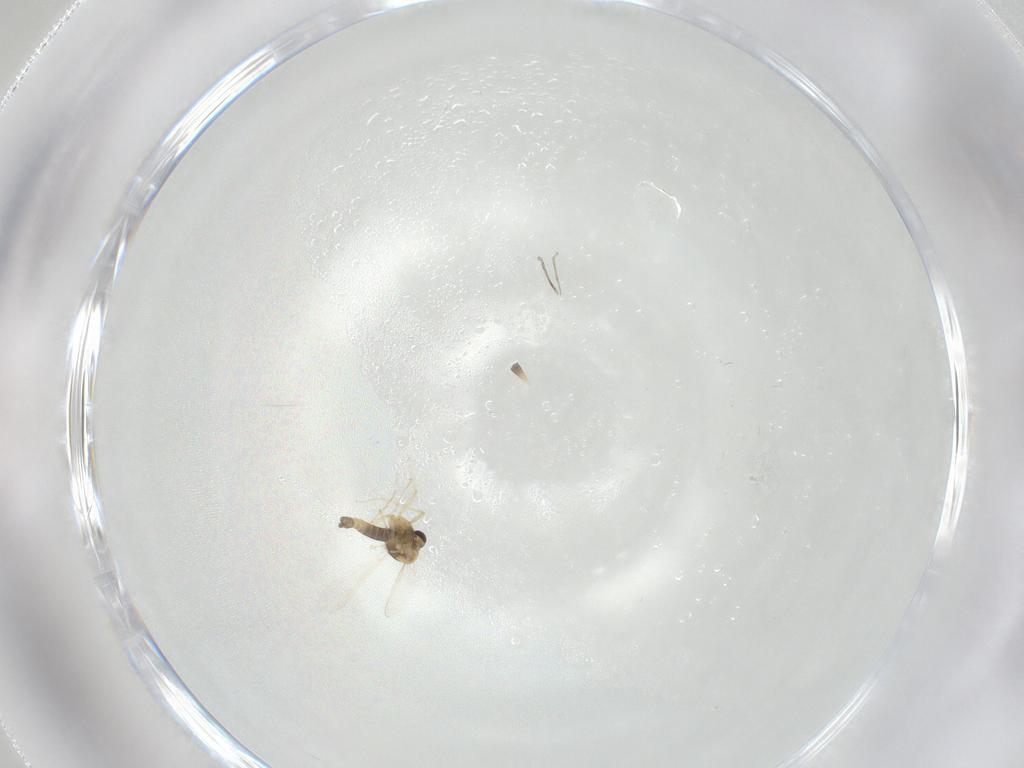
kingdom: Animalia
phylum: Arthropoda
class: Insecta
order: Diptera
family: Chironomidae
